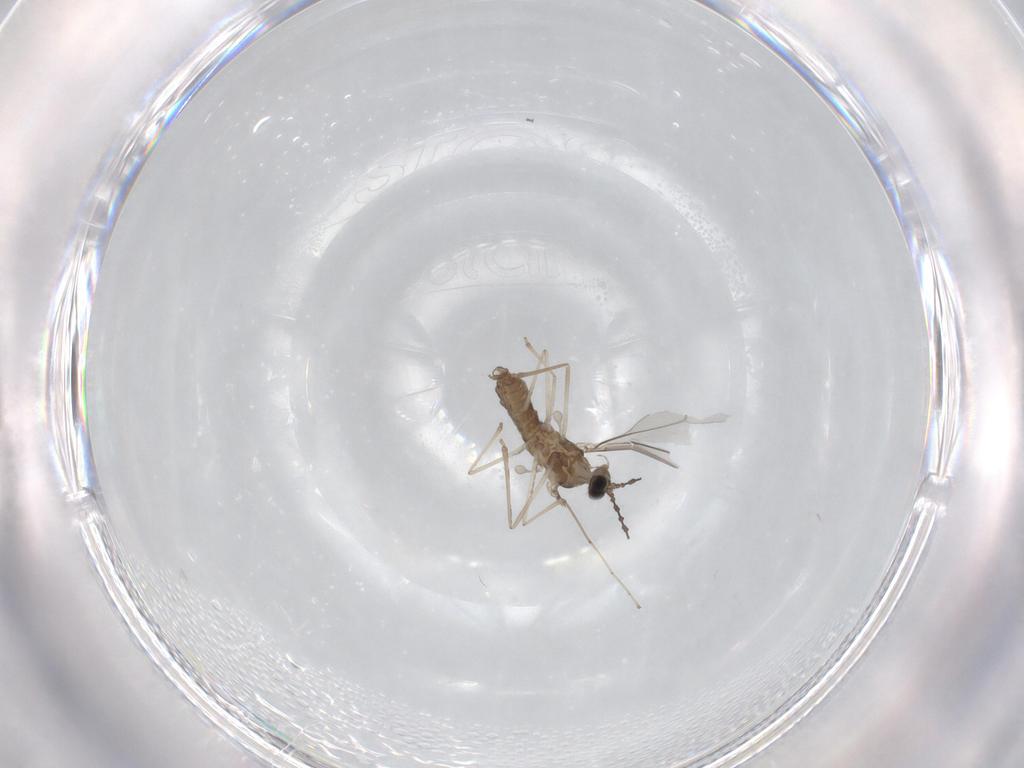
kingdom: Animalia
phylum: Arthropoda
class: Insecta
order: Diptera
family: Cecidomyiidae
